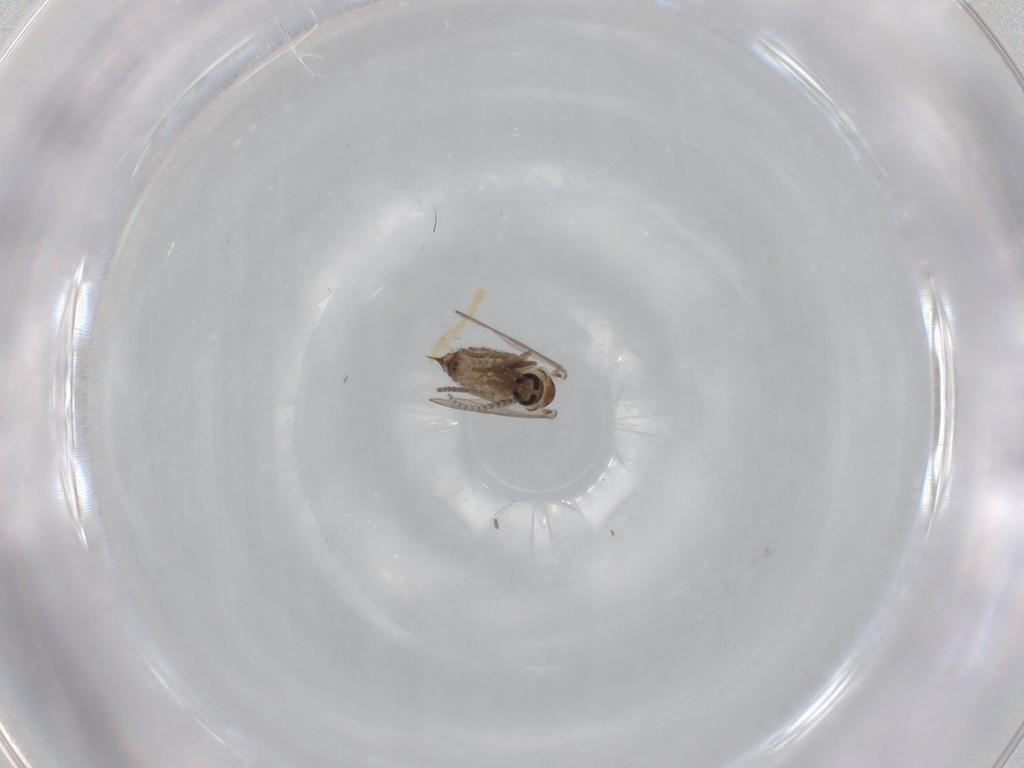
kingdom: Animalia
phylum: Arthropoda
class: Insecta
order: Diptera
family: Psychodidae
